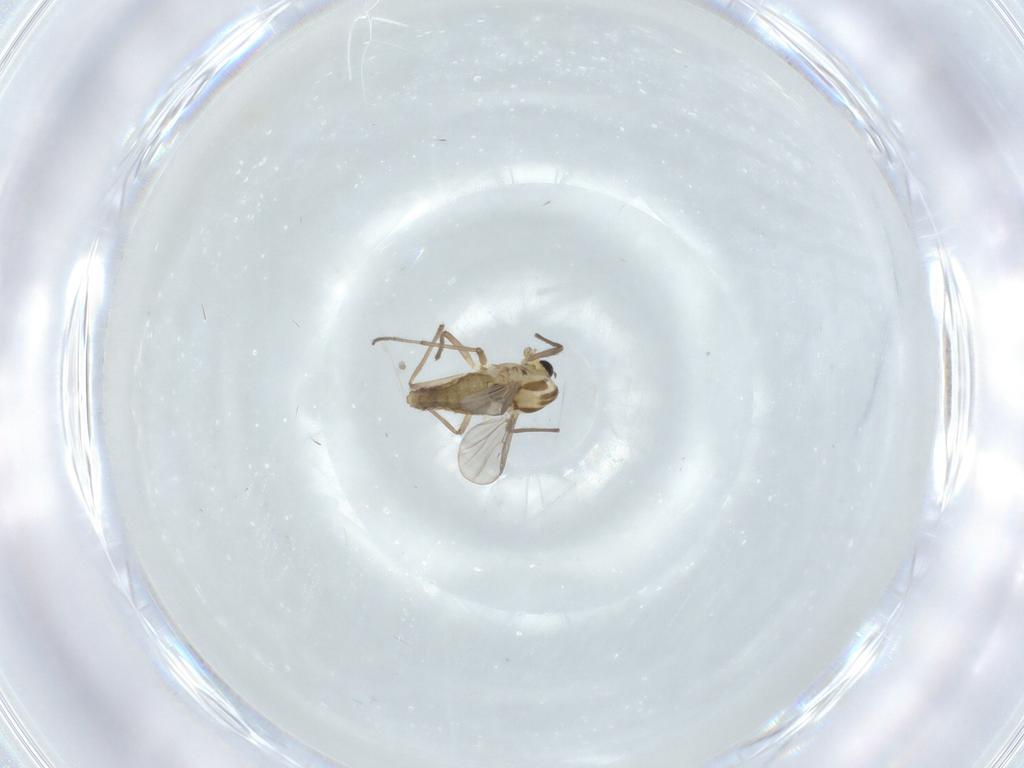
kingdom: Animalia
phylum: Arthropoda
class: Insecta
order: Diptera
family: Chironomidae
